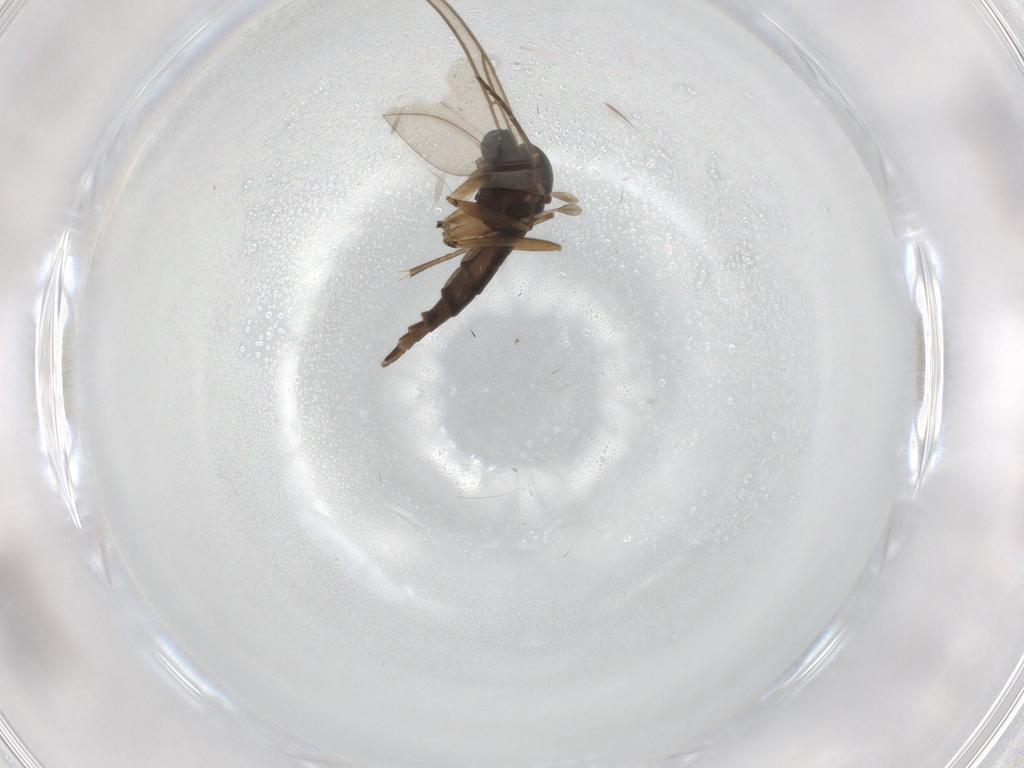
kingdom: Animalia
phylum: Arthropoda
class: Insecta
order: Diptera
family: Sciaridae
